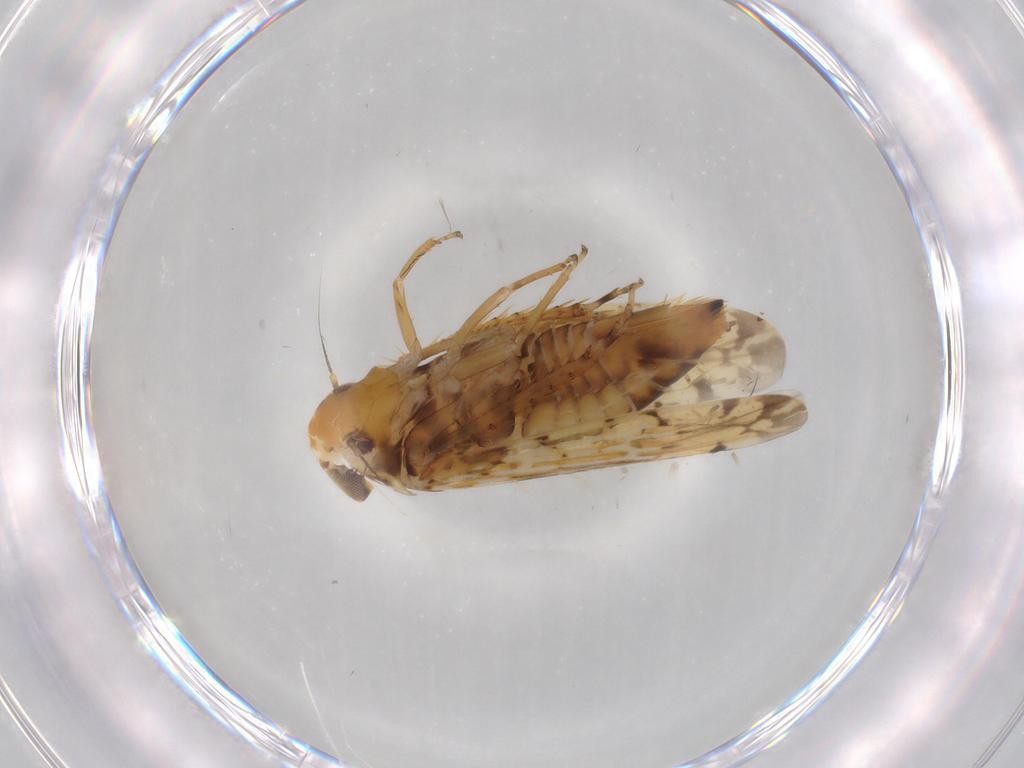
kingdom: Animalia
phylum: Arthropoda
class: Insecta
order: Hemiptera
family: Cicadellidae
